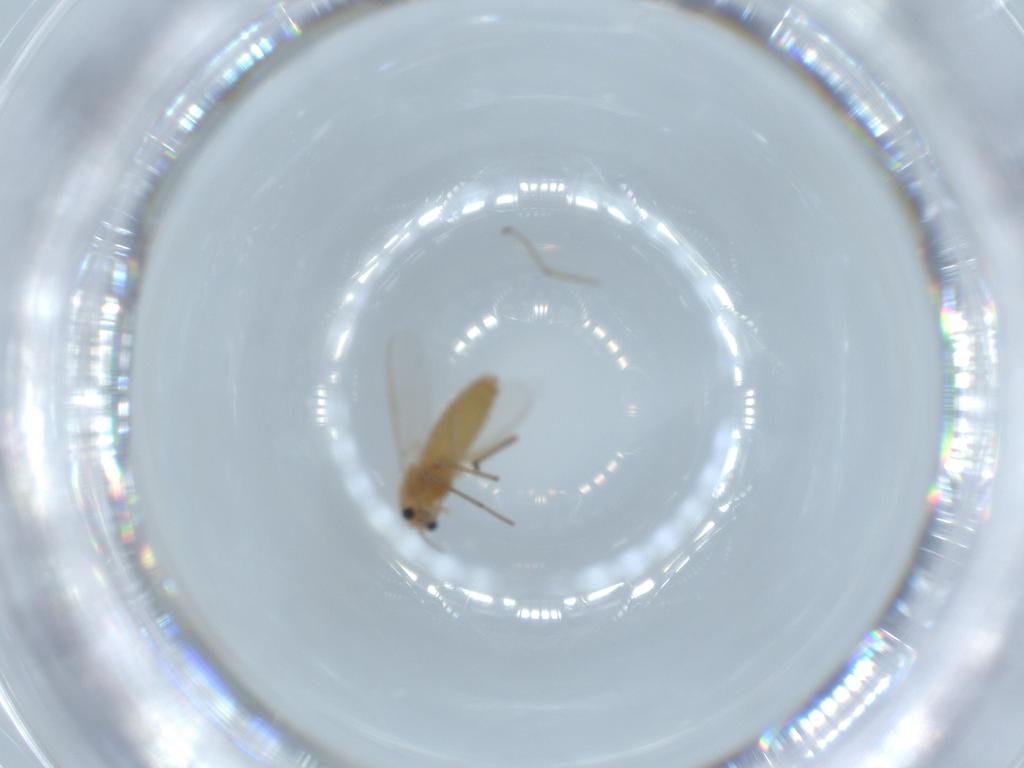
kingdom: Animalia
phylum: Arthropoda
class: Insecta
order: Diptera
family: Chironomidae
